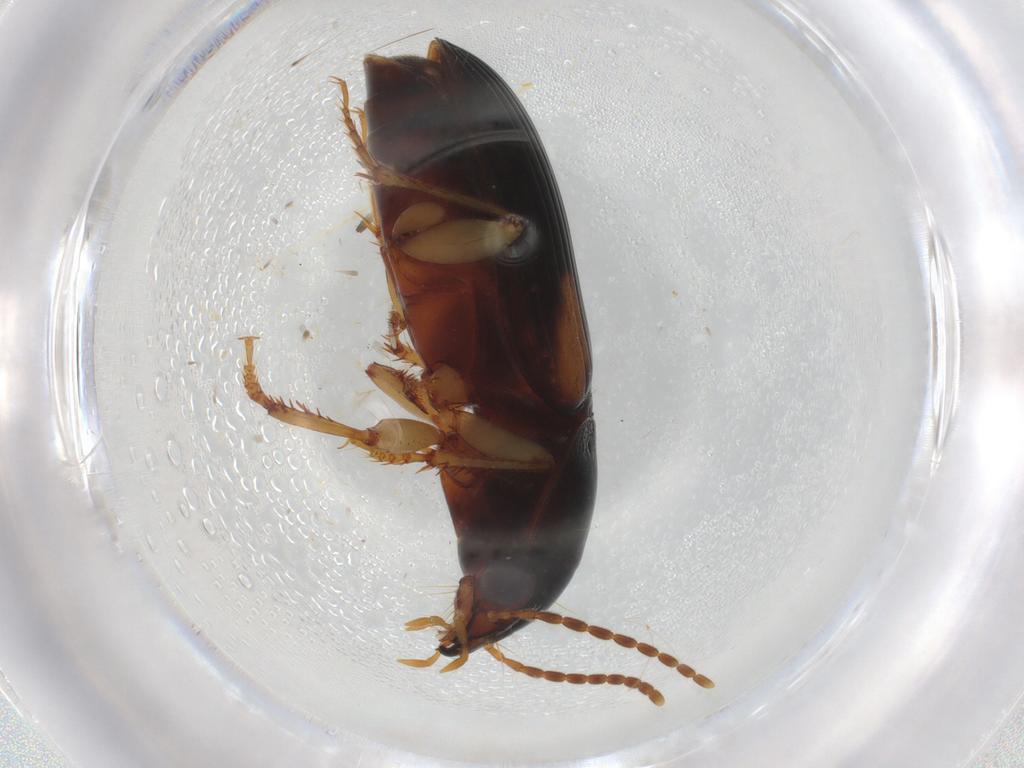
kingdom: Animalia
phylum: Arthropoda
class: Insecta
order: Coleoptera
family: Carabidae
